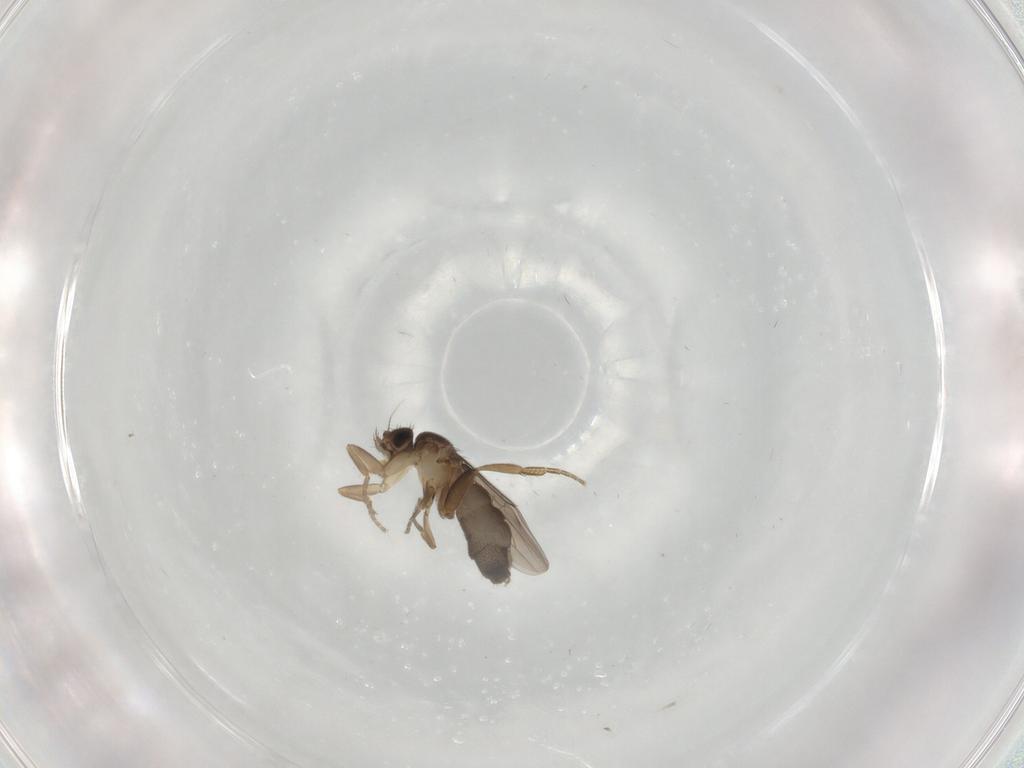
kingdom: Animalia
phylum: Arthropoda
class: Insecta
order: Diptera
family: Phoridae
